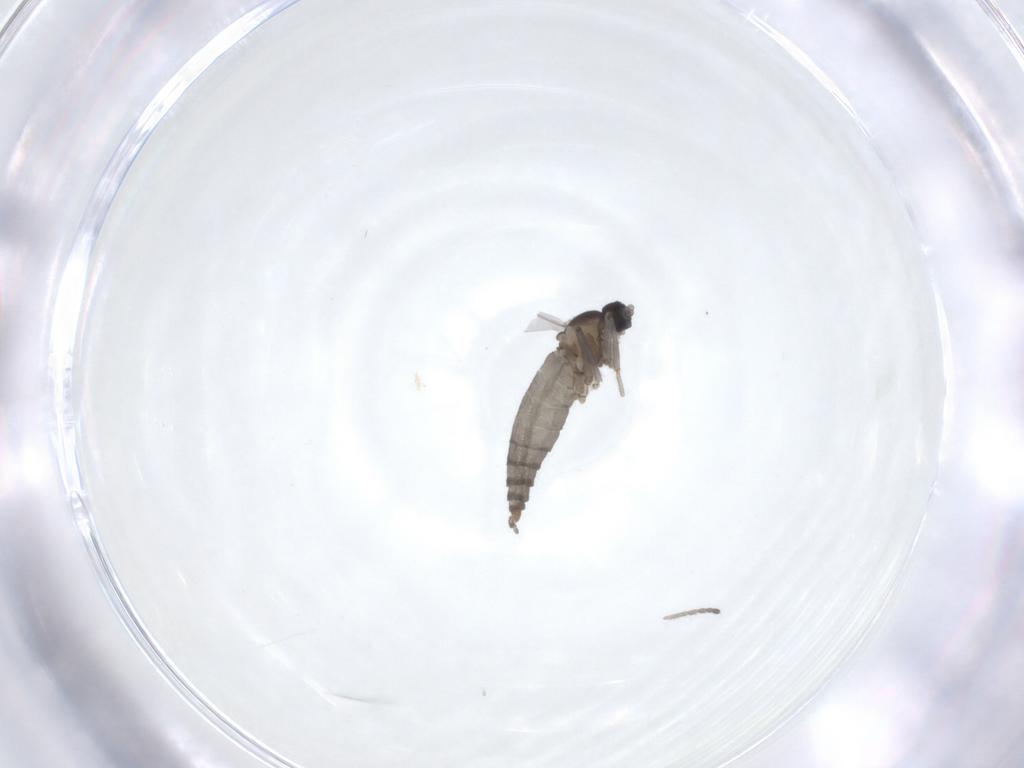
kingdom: Animalia
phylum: Arthropoda
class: Insecta
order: Diptera
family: Cecidomyiidae
